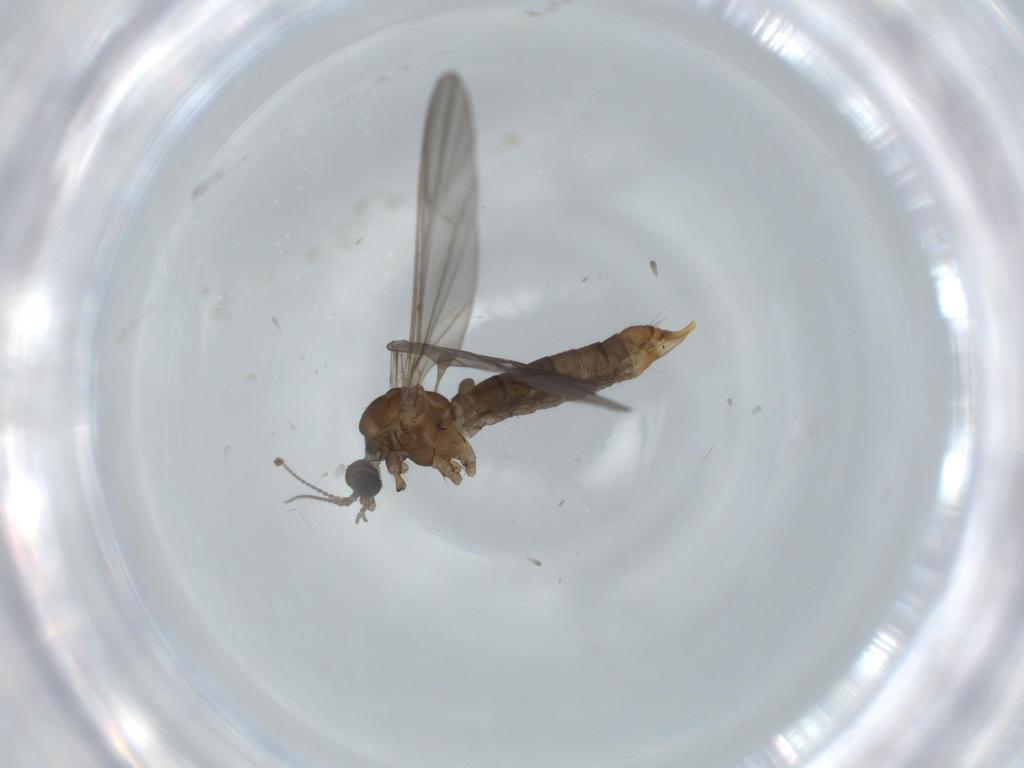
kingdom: Animalia
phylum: Arthropoda
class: Insecta
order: Diptera
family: Limoniidae
